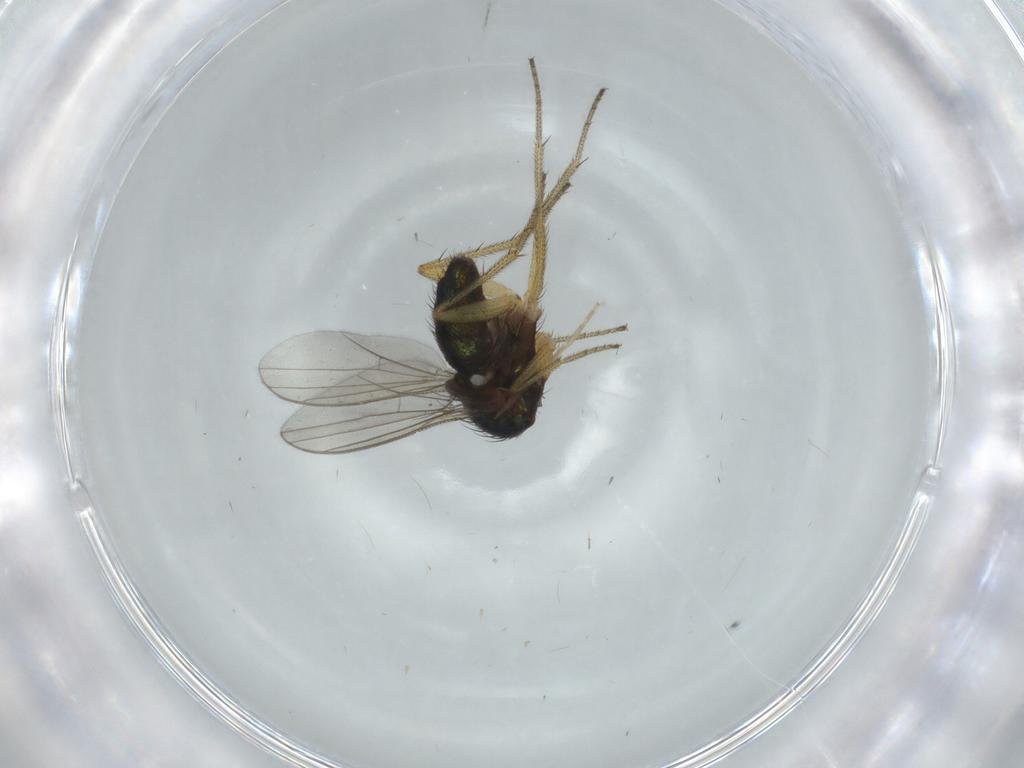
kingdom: Animalia
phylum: Arthropoda
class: Insecta
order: Diptera
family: Dolichopodidae
